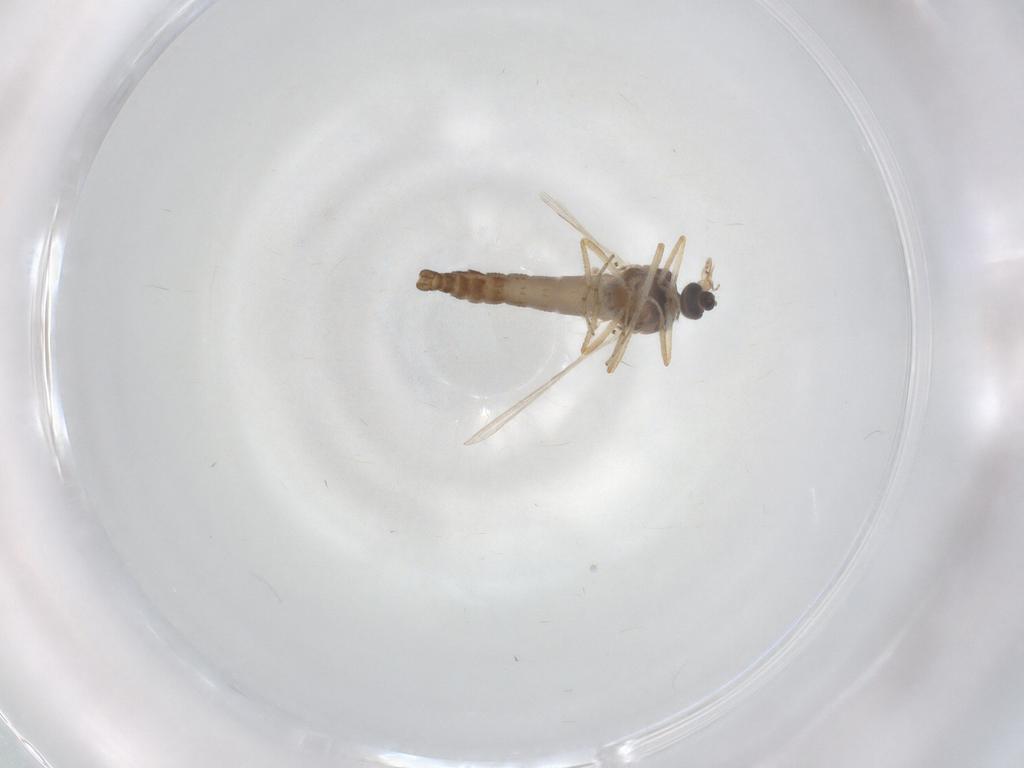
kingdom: Animalia
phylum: Arthropoda
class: Insecta
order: Diptera
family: Ceratopogonidae
